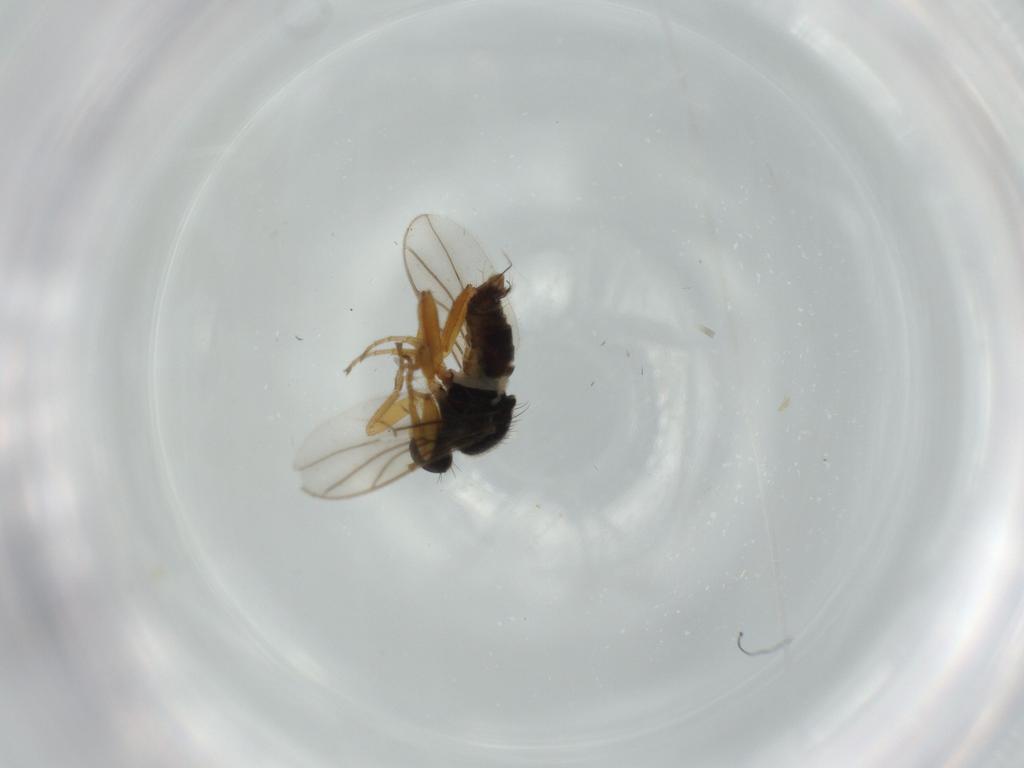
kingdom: Animalia
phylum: Arthropoda
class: Insecta
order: Diptera
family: Hybotidae
